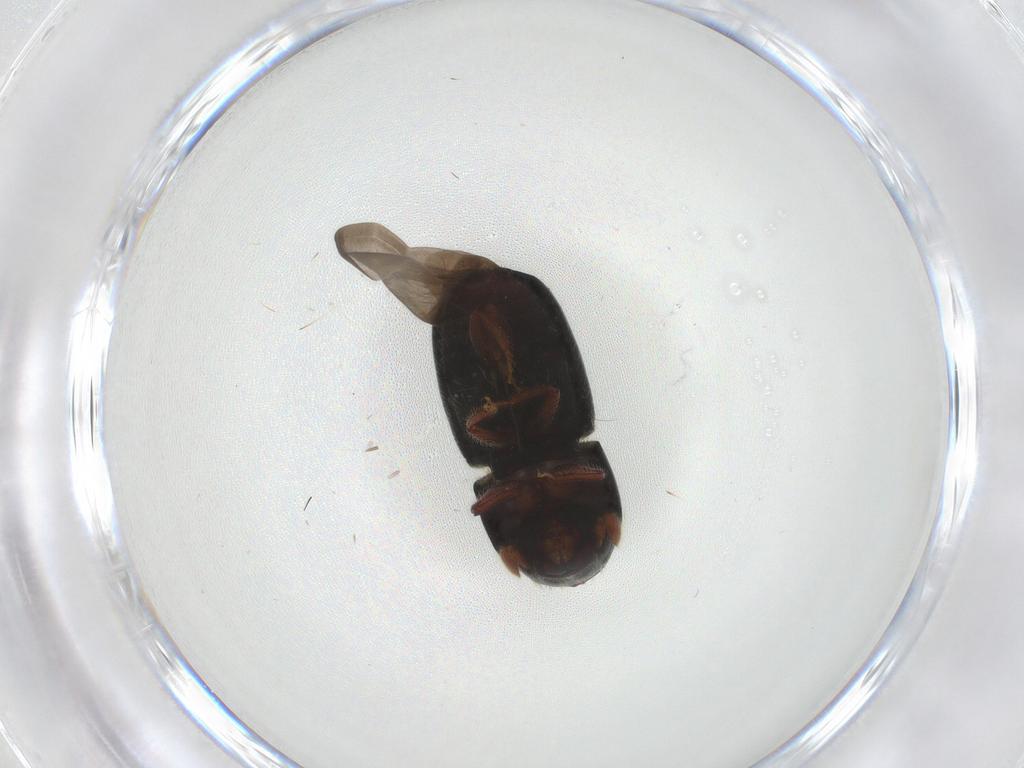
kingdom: Animalia
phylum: Arthropoda
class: Insecta
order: Coleoptera
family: Curculionidae
